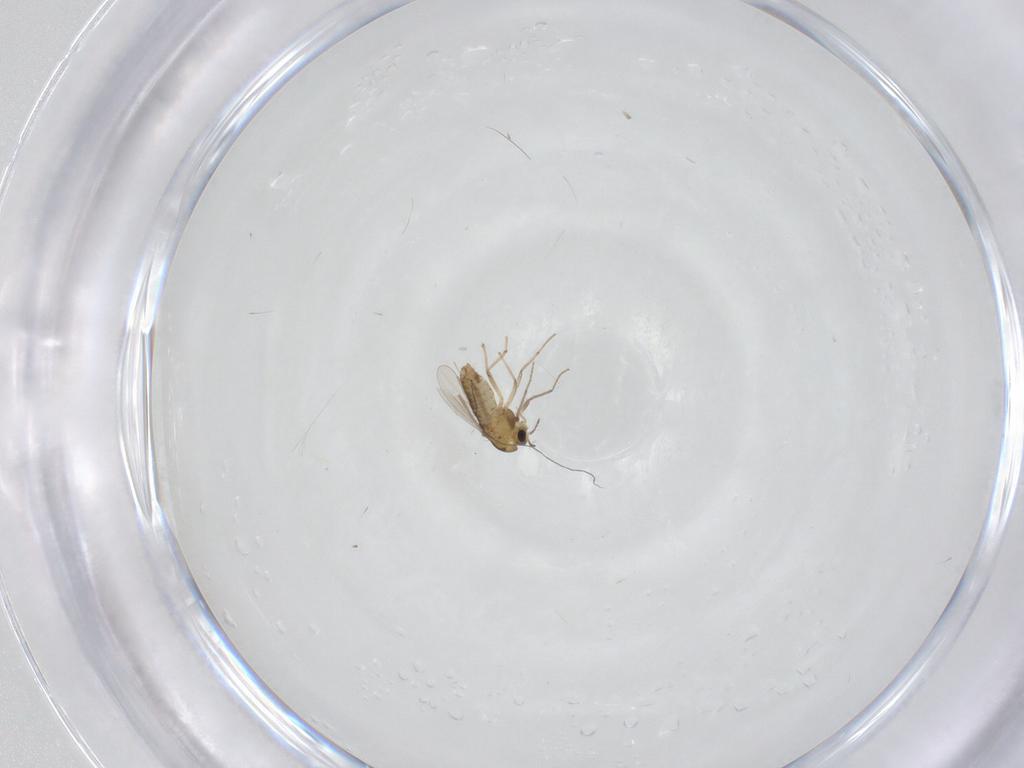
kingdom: Animalia
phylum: Arthropoda
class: Insecta
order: Diptera
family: Chironomidae
